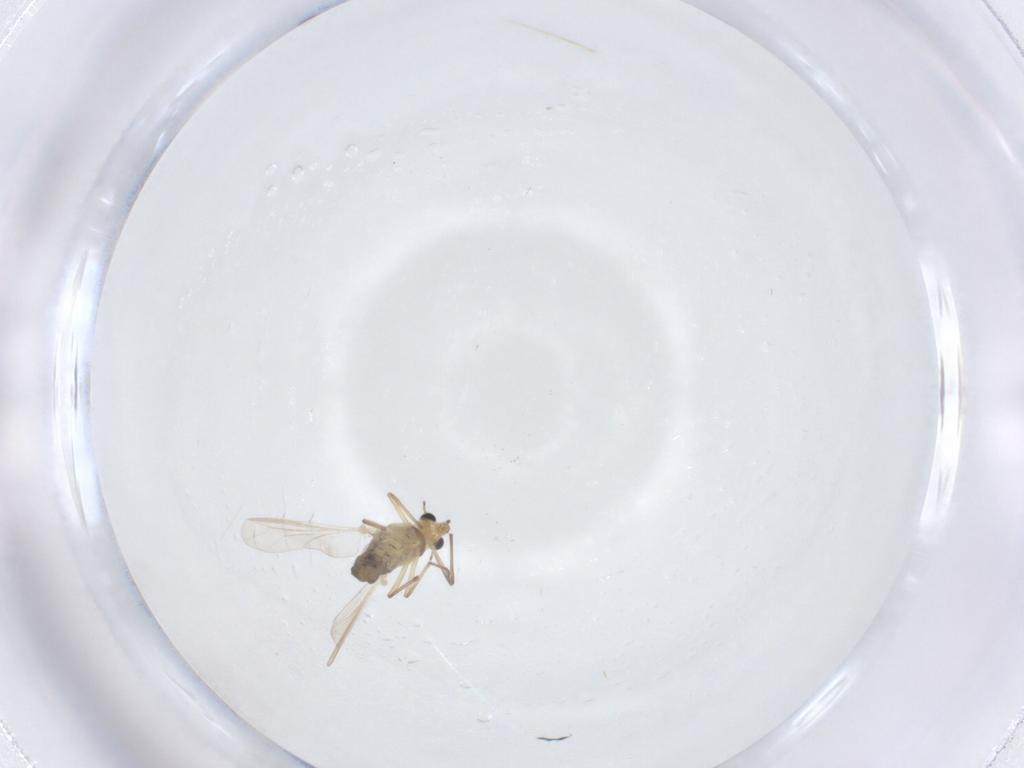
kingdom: Animalia
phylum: Arthropoda
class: Insecta
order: Diptera
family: Chironomidae
